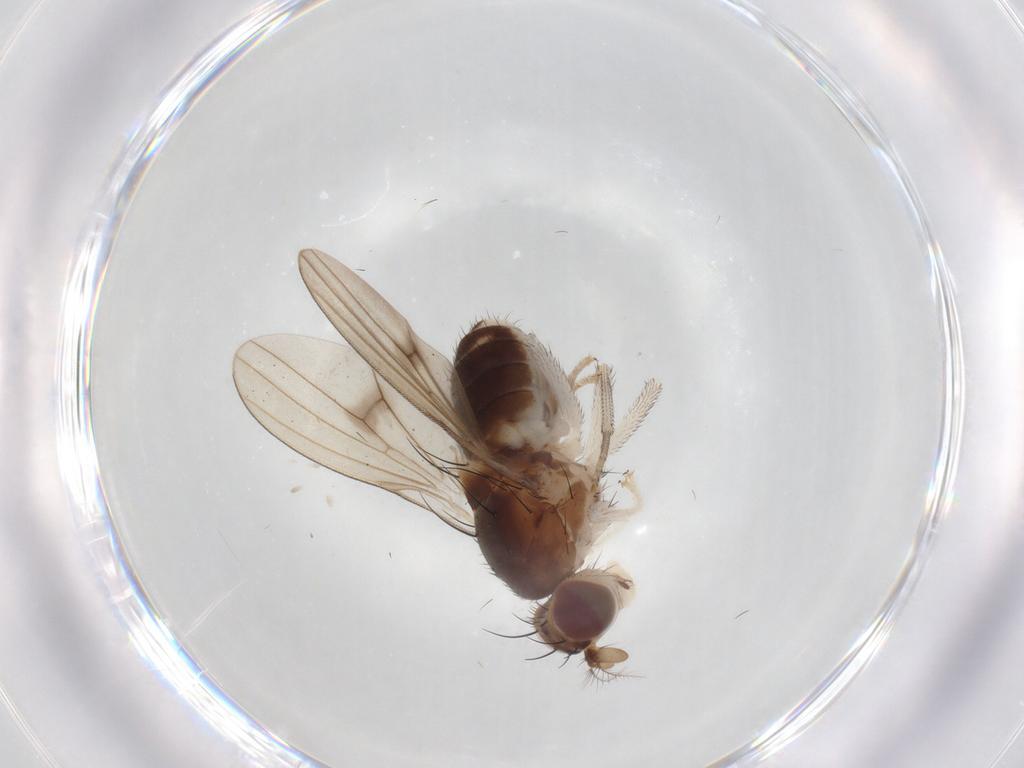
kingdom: Animalia
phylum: Arthropoda
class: Insecta
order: Diptera
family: Lauxaniidae
